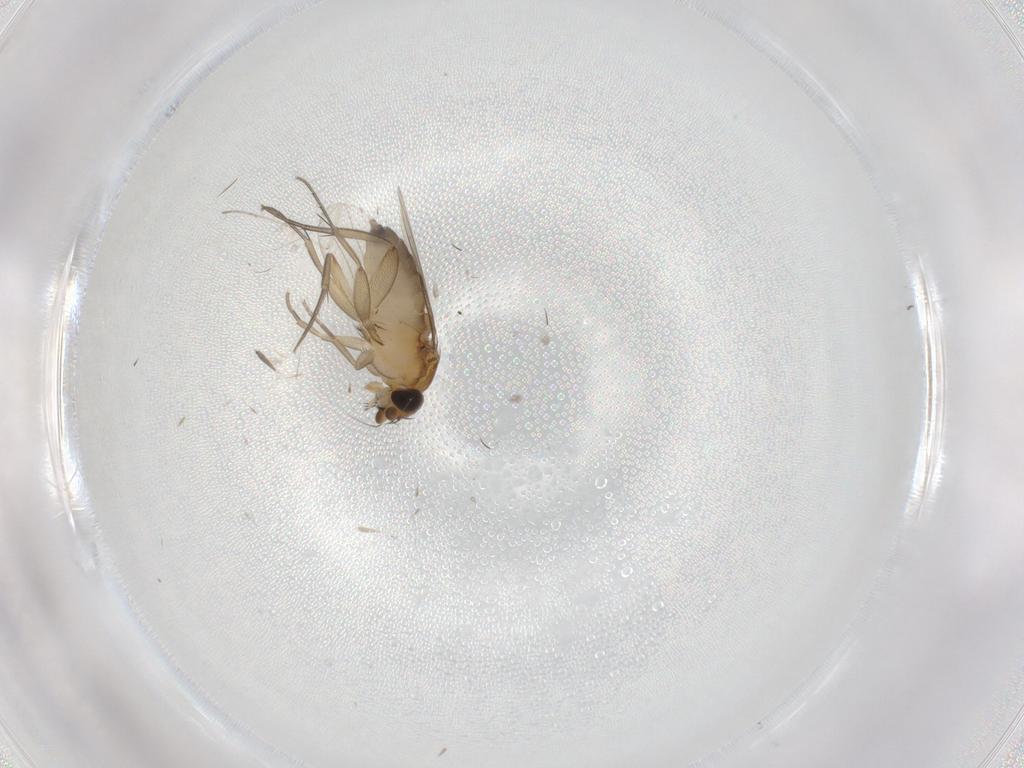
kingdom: Animalia
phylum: Arthropoda
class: Insecta
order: Diptera
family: Phoridae
